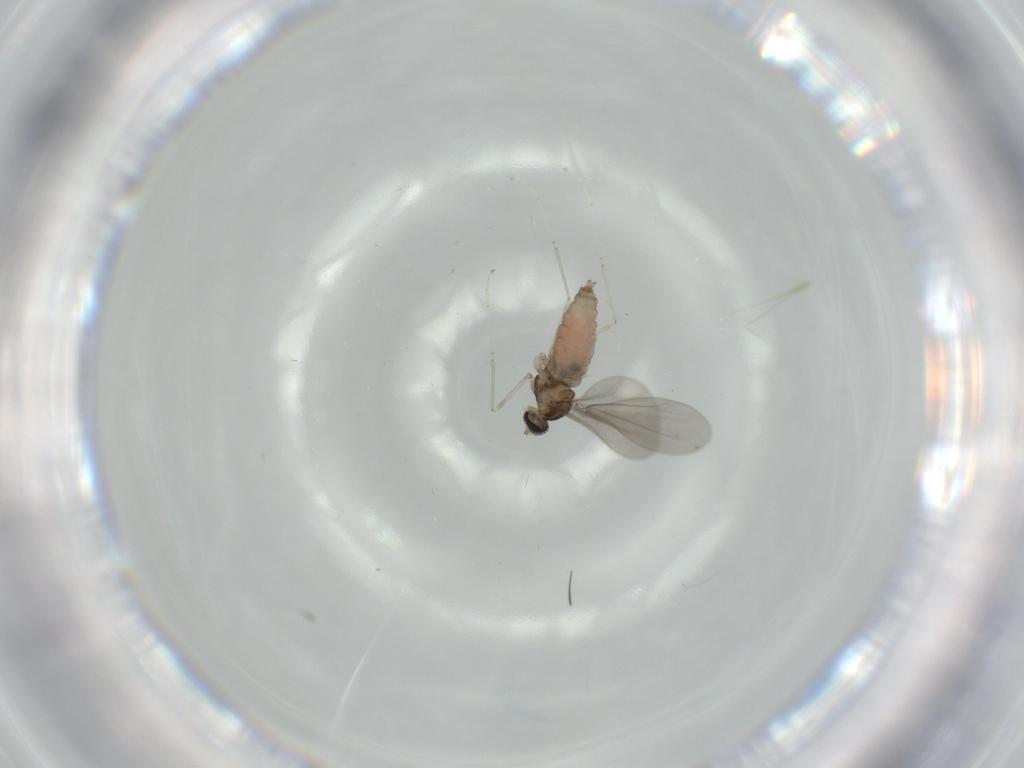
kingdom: Animalia
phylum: Arthropoda
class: Insecta
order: Diptera
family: Cecidomyiidae
